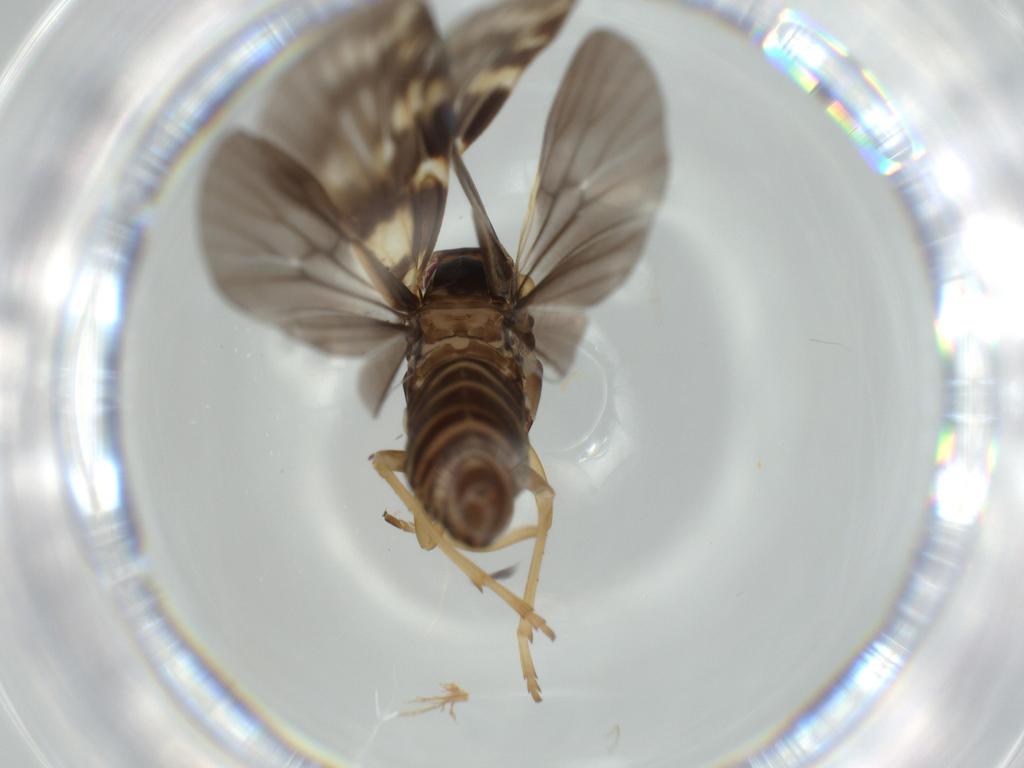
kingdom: Animalia
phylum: Arthropoda
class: Insecta
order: Hemiptera
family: Cixiidae
